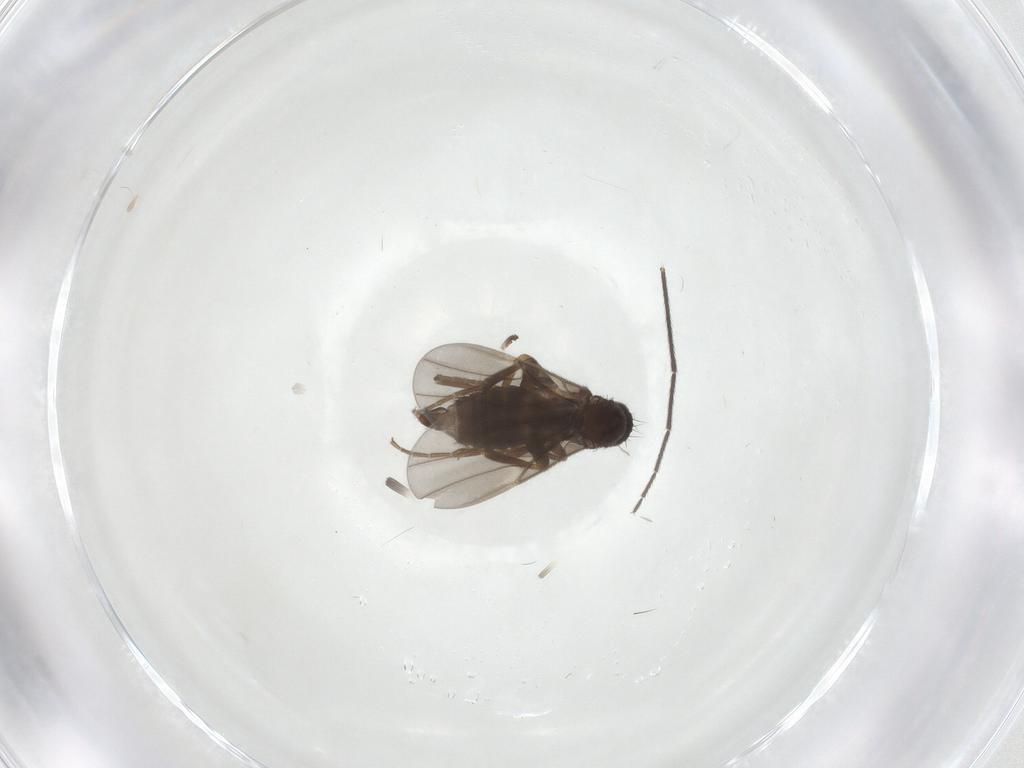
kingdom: Animalia
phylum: Arthropoda
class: Insecta
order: Diptera
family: Phoridae
